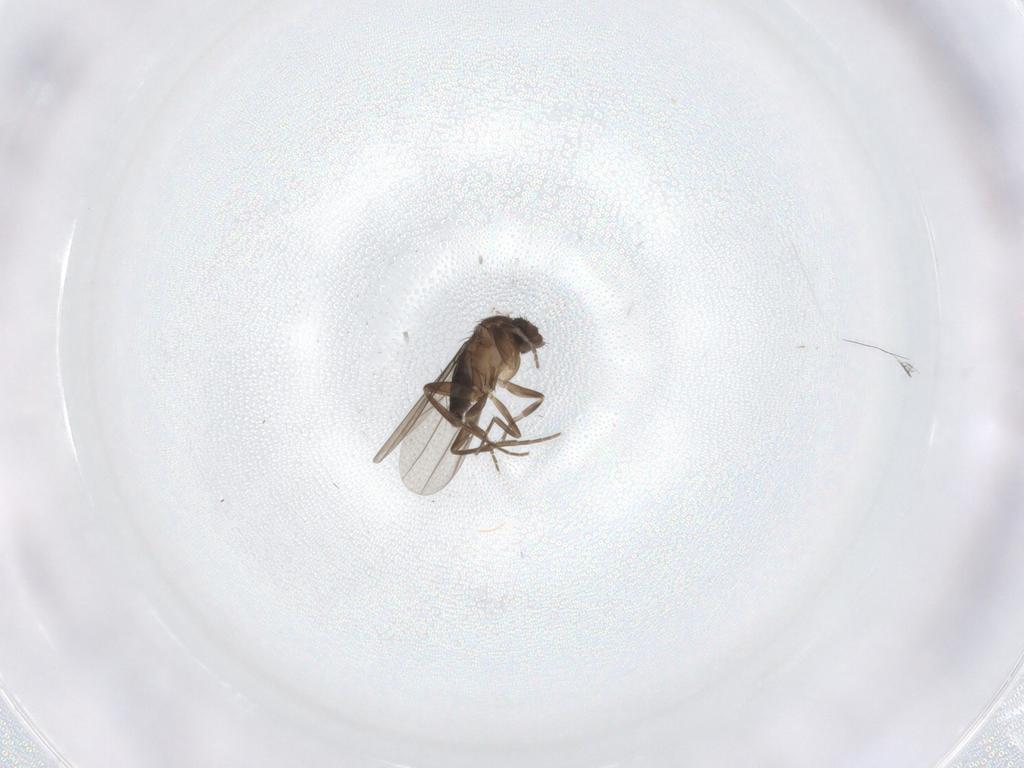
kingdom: Animalia
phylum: Arthropoda
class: Insecta
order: Diptera
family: Phoridae
